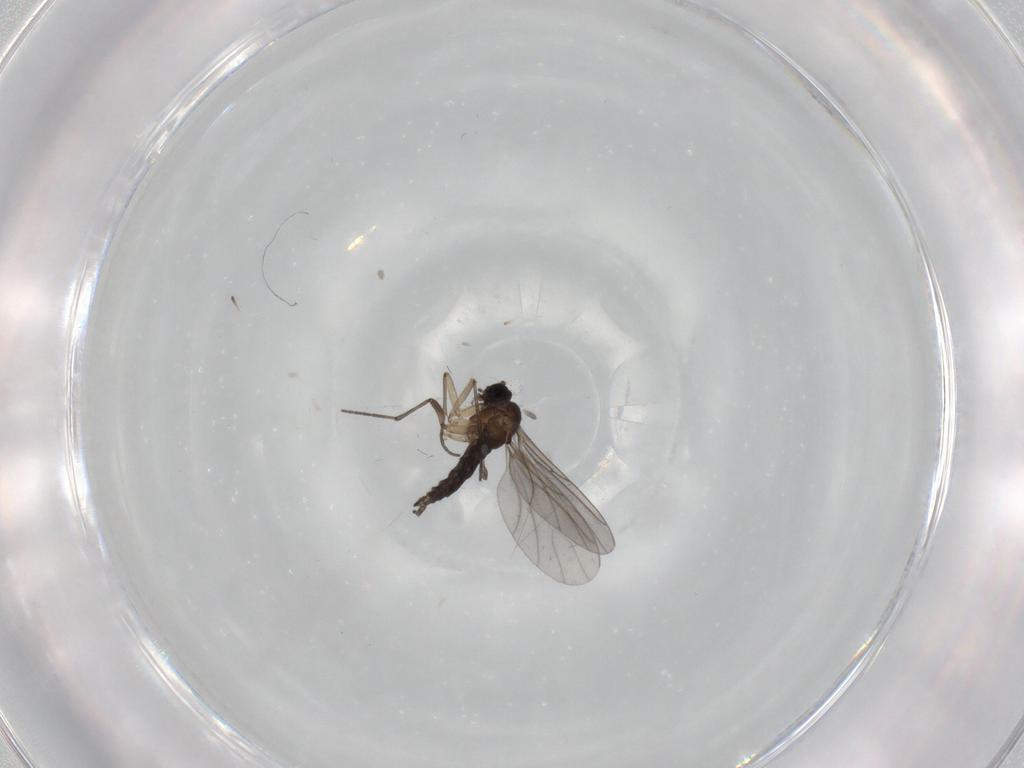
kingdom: Animalia
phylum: Arthropoda
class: Insecta
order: Diptera
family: Sciaridae
